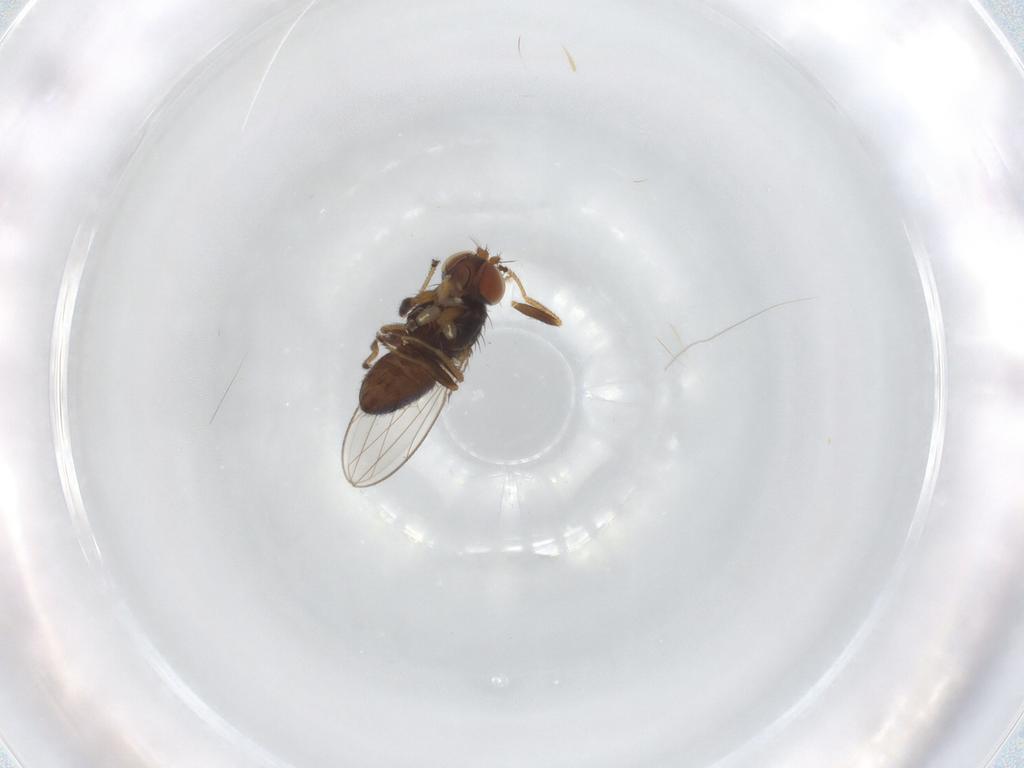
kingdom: Animalia
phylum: Arthropoda
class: Insecta
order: Diptera
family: Ephydridae
